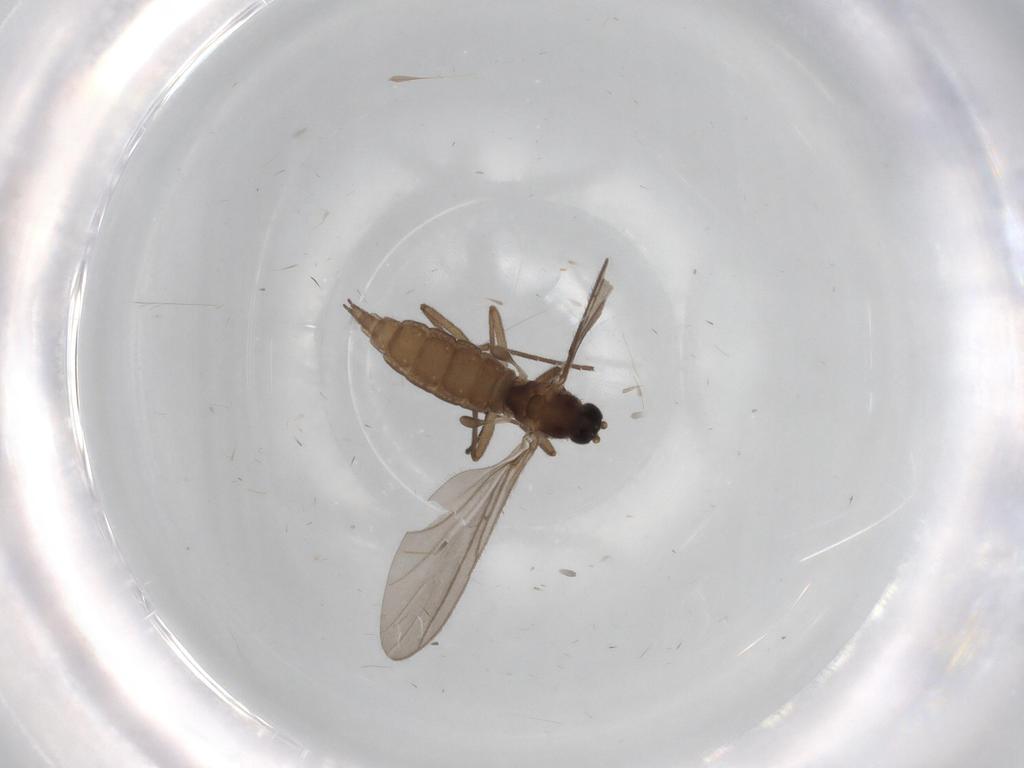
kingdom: Animalia
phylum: Arthropoda
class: Insecta
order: Diptera
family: Sciaridae
